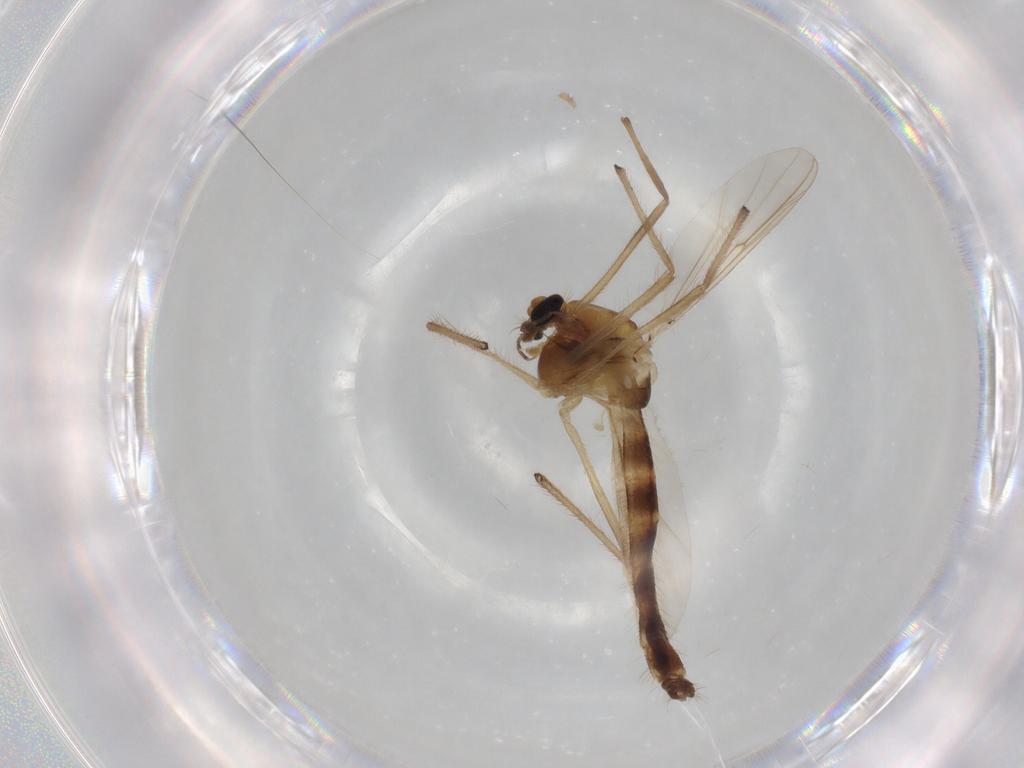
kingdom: Animalia
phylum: Arthropoda
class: Insecta
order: Diptera
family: Chironomidae
